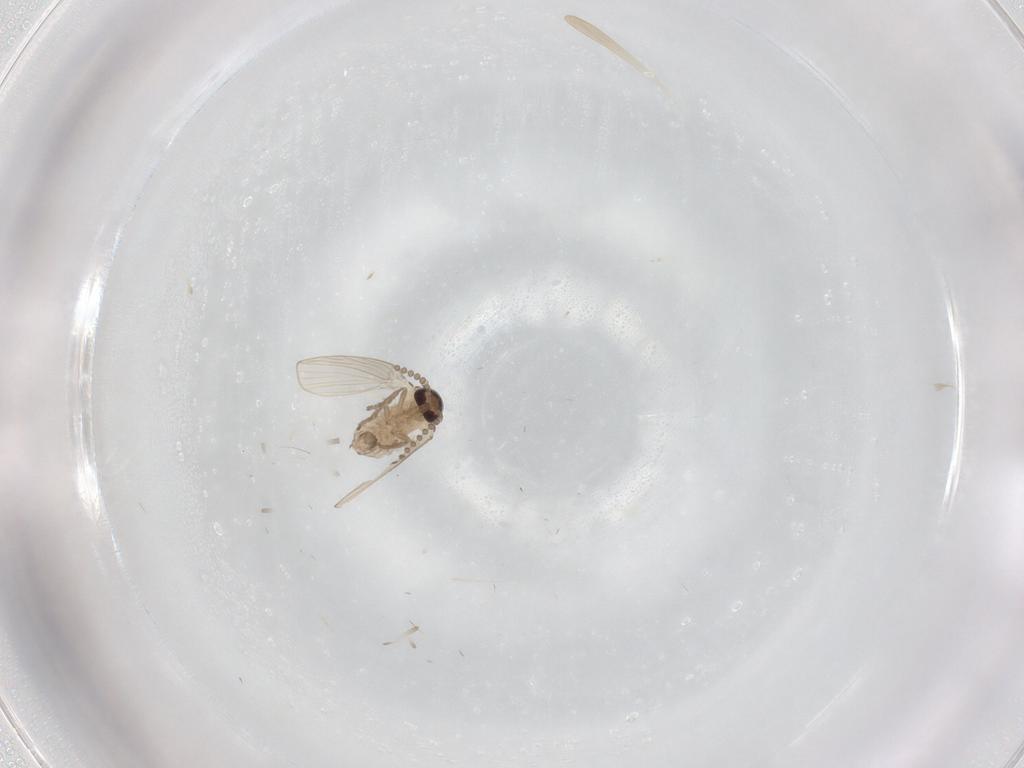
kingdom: Animalia
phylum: Arthropoda
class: Insecta
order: Diptera
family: Psychodidae
